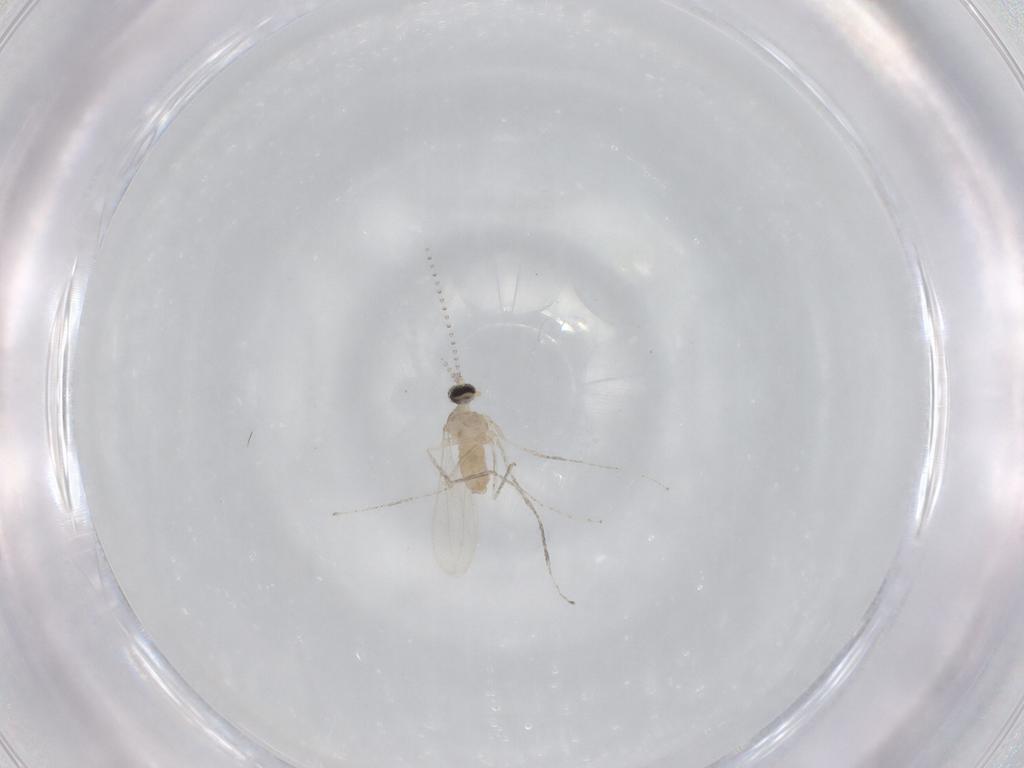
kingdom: Animalia
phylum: Arthropoda
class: Insecta
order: Diptera
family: Cecidomyiidae
